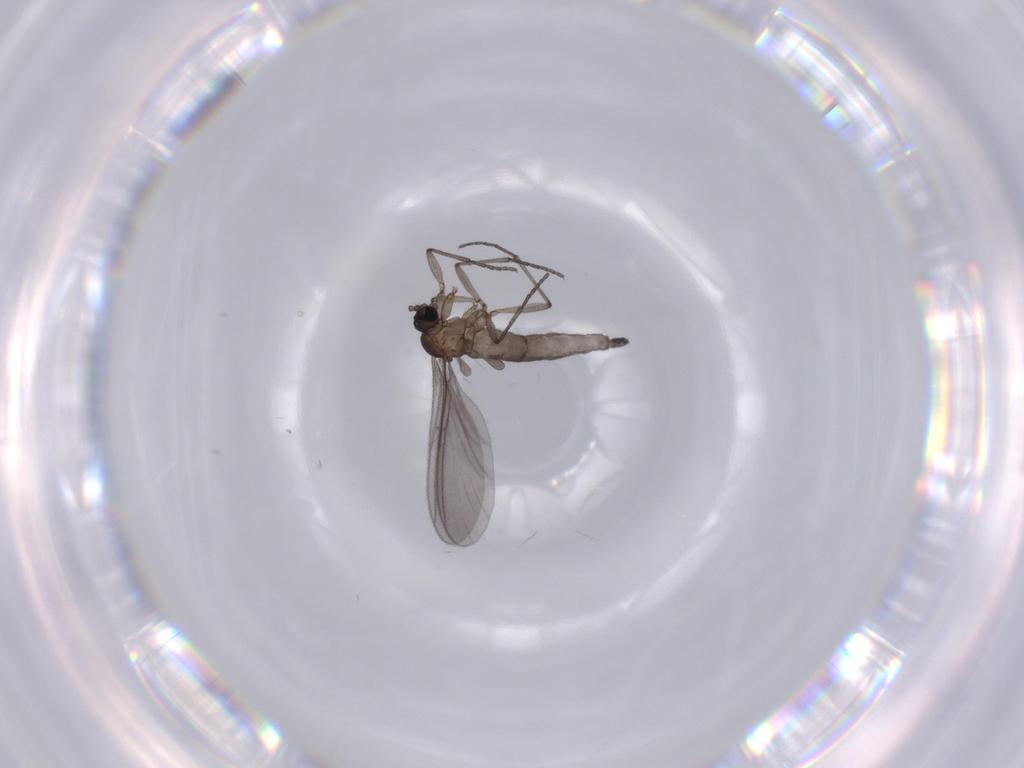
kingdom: Animalia
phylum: Arthropoda
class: Insecta
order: Diptera
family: Sciaridae
